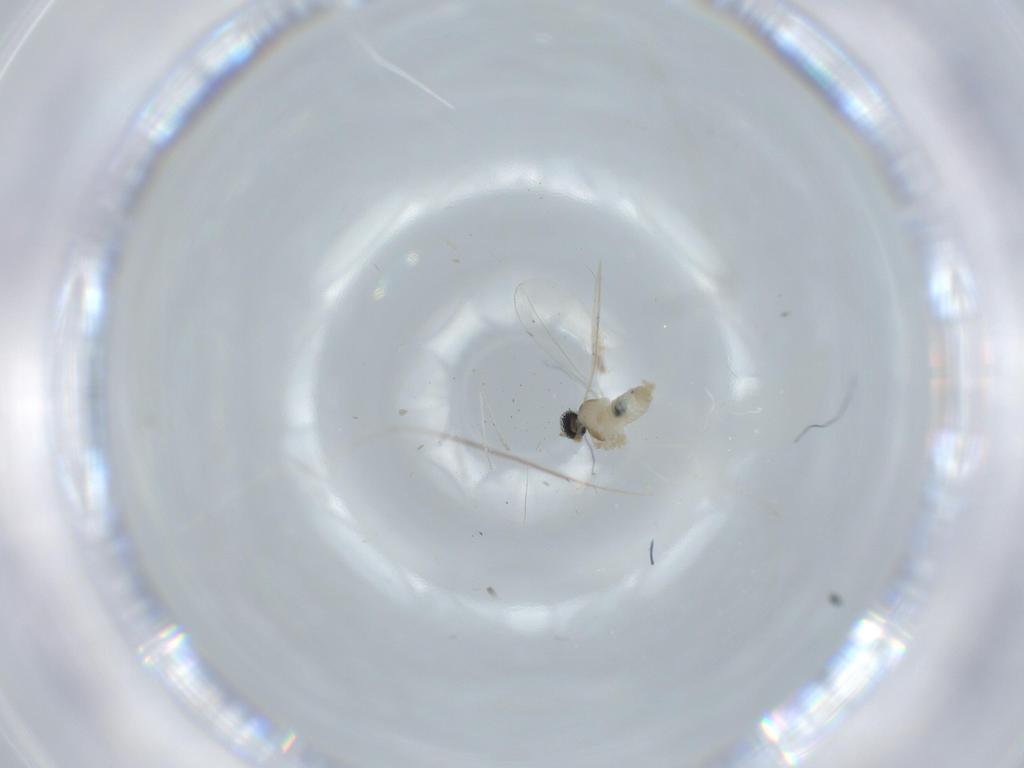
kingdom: Animalia
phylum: Arthropoda
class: Insecta
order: Diptera
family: Cecidomyiidae
